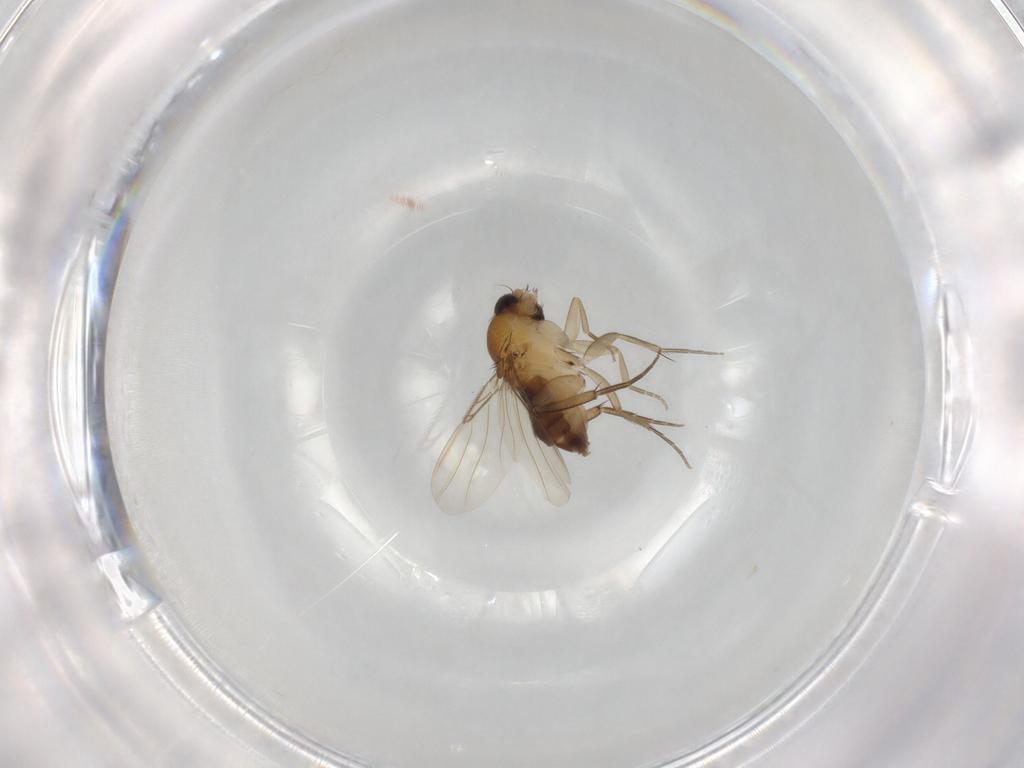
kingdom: Animalia
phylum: Arthropoda
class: Insecta
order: Diptera
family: Phoridae
